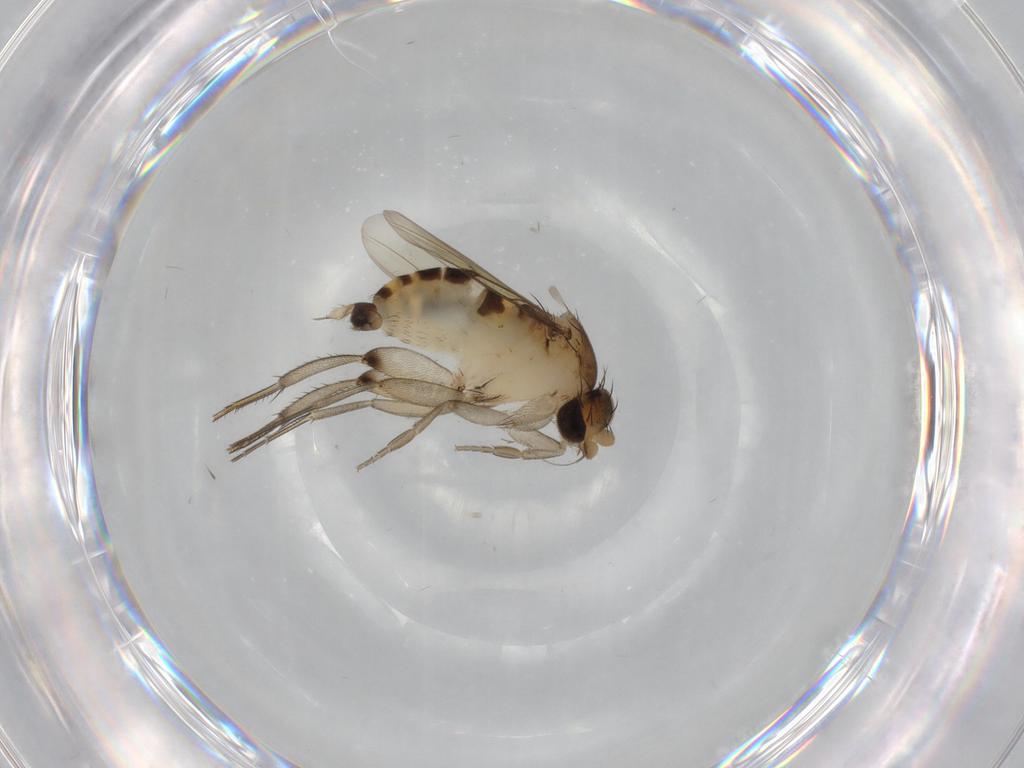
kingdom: Animalia
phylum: Arthropoda
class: Insecta
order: Diptera
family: Phoridae
